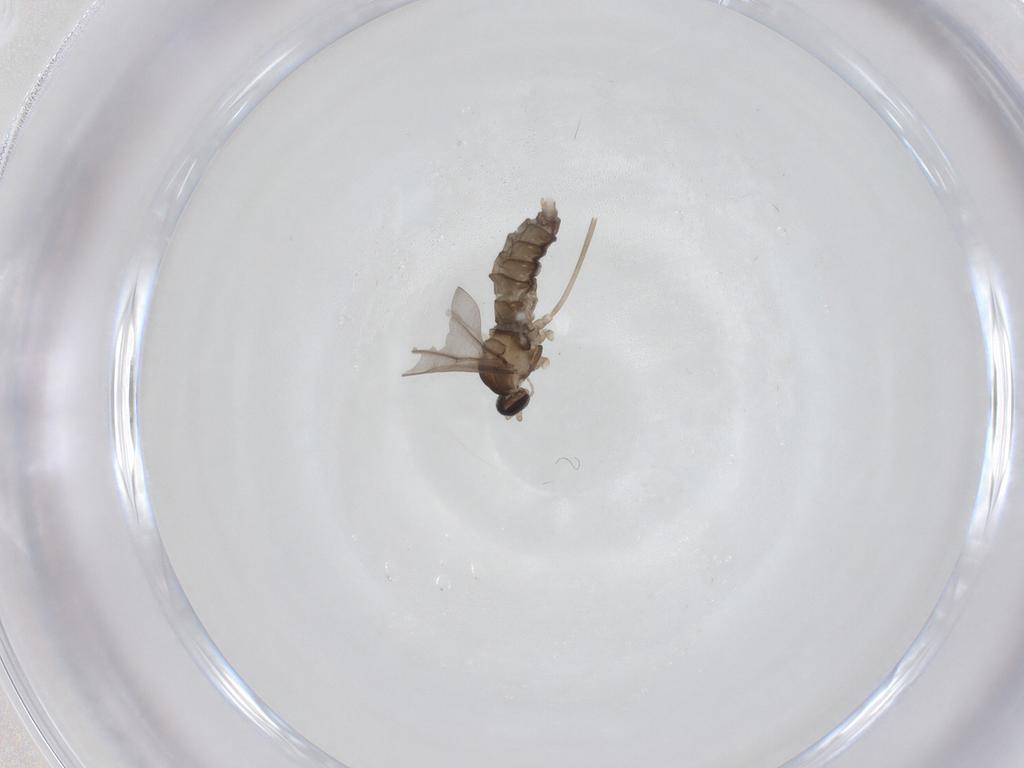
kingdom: Animalia
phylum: Arthropoda
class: Insecta
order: Diptera
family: Cecidomyiidae
